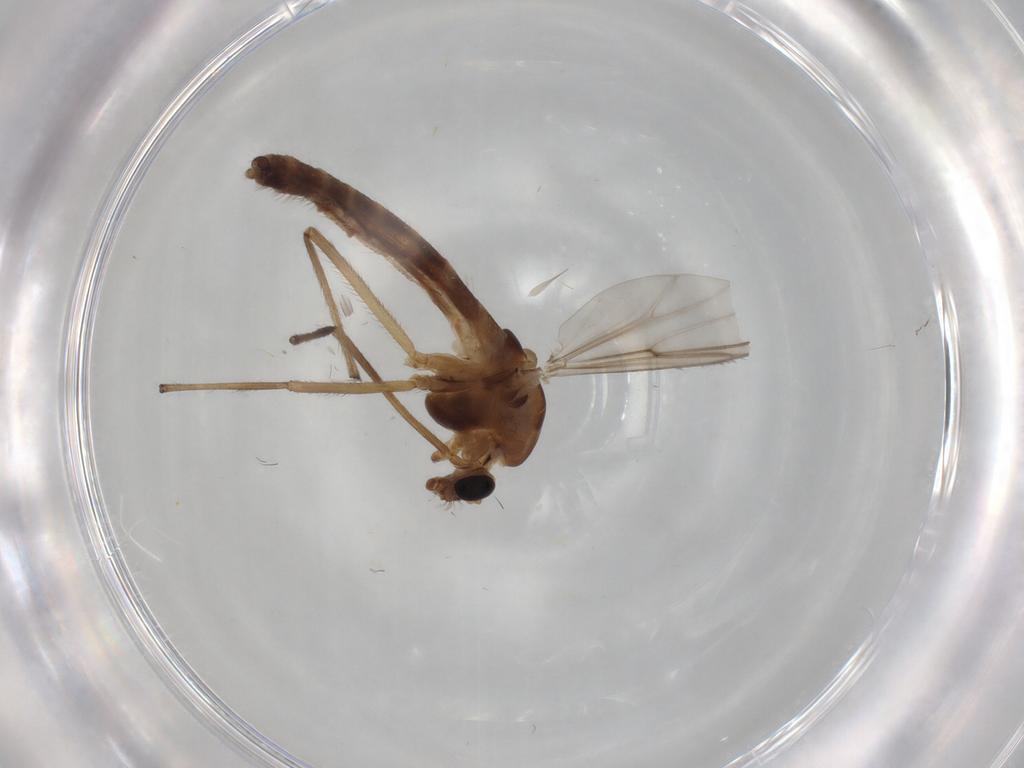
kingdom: Animalia
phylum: Arthropoda
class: Insecta
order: Diptera
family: Chironomidae
